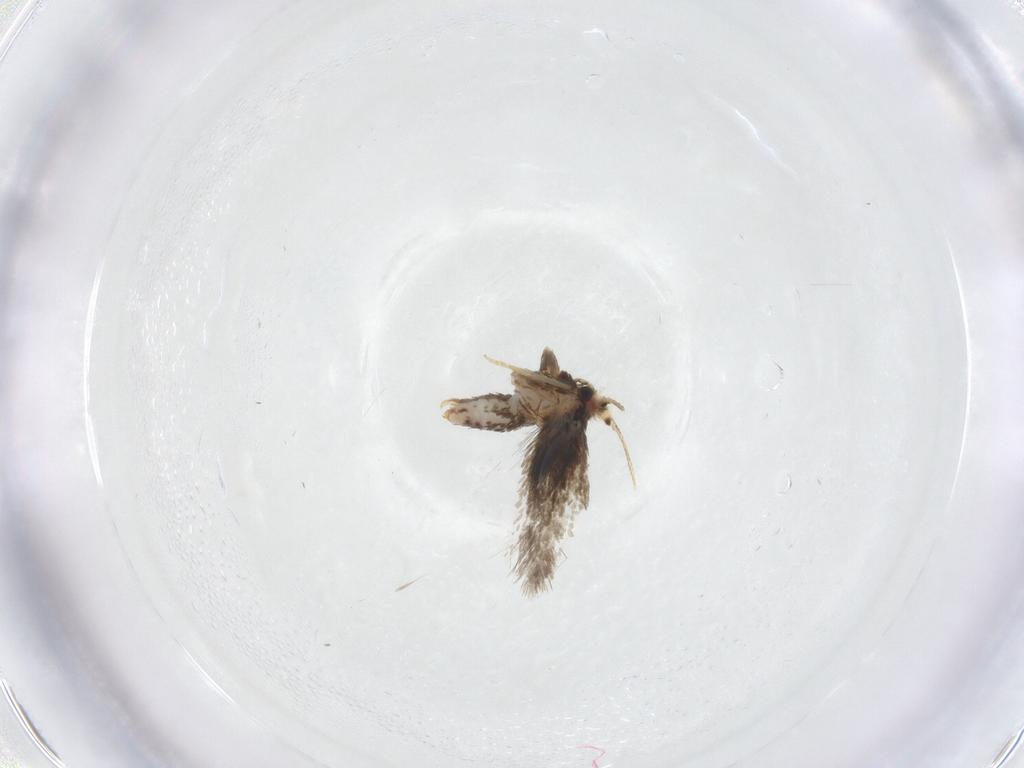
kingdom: Animalia
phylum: Arthropoda
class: Insecta
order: Lepidoptera
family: Nepticulidae
